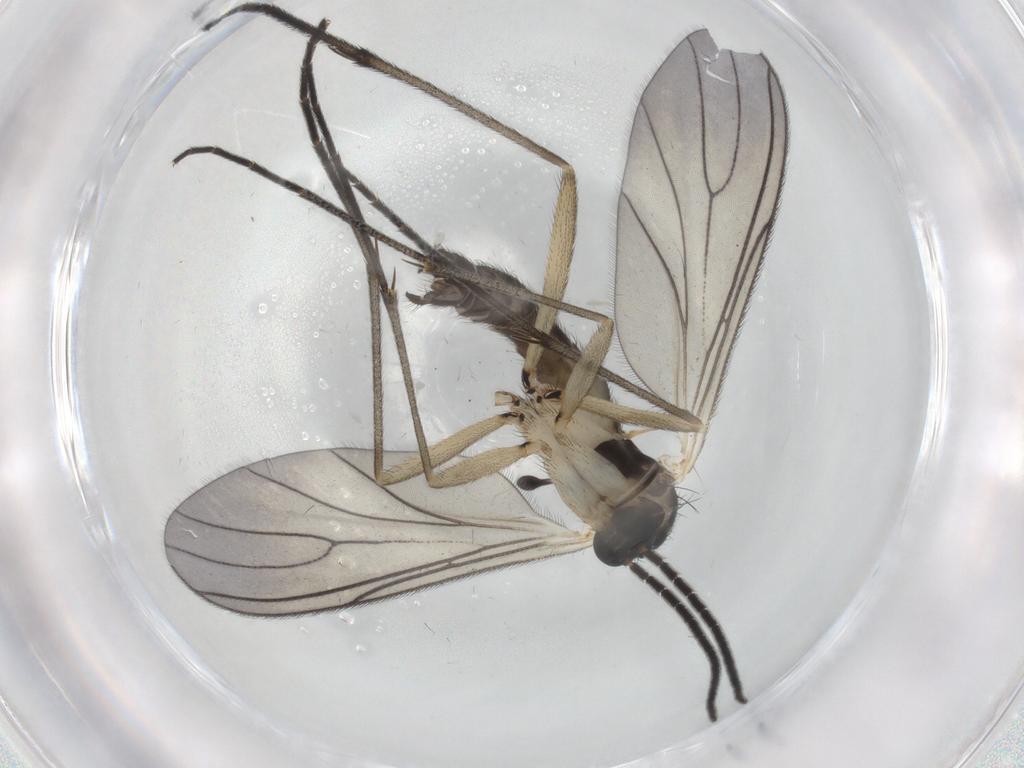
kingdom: Animalia
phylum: Arthropoda
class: Insecta
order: Diptera
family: Sciaridae
